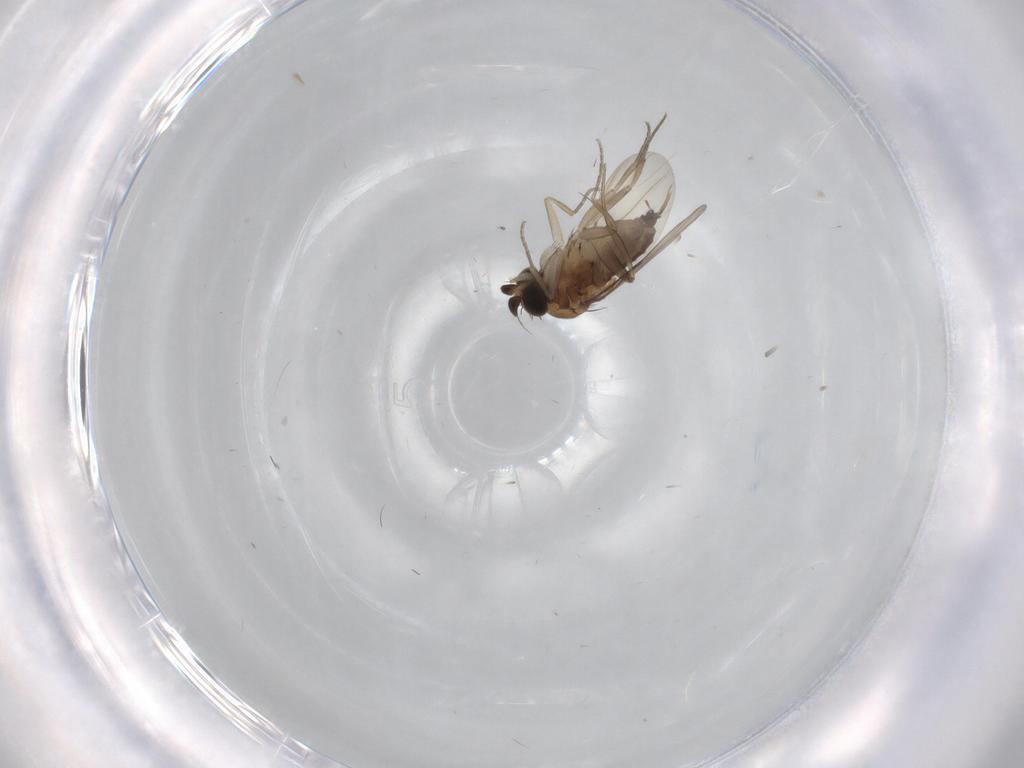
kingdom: Animalia
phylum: Arthropoda
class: Insecta
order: Diptera
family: Phoridae
